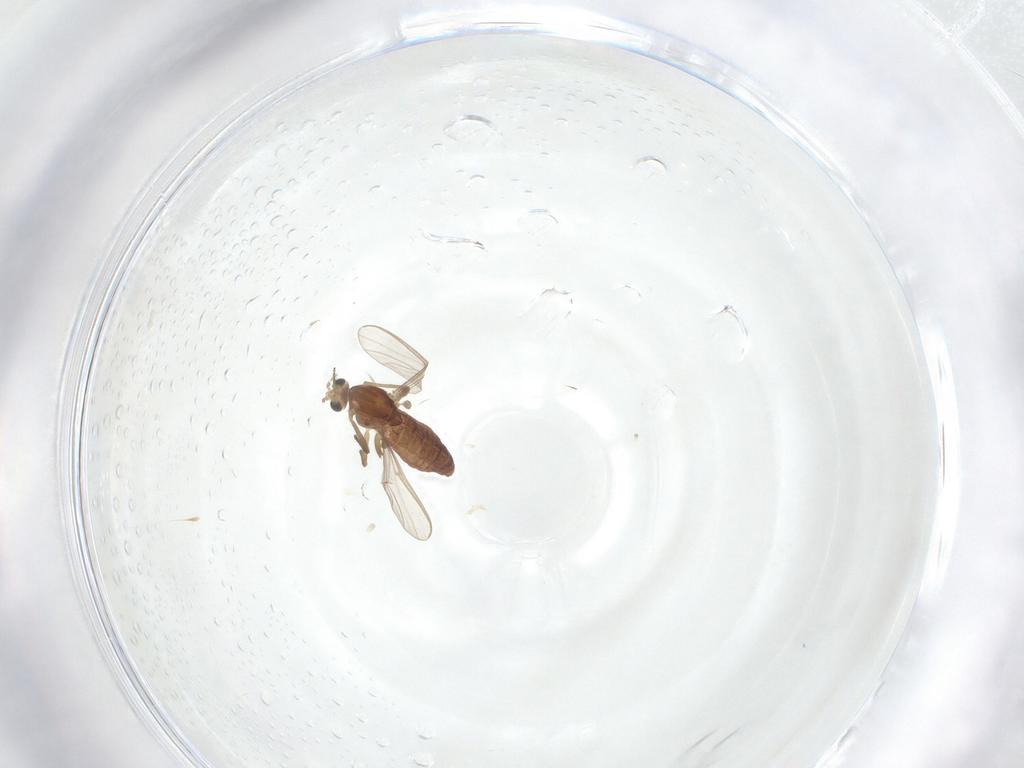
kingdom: Animalia
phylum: Arthropoda
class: Insecta
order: Diptera
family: Chironomidae
